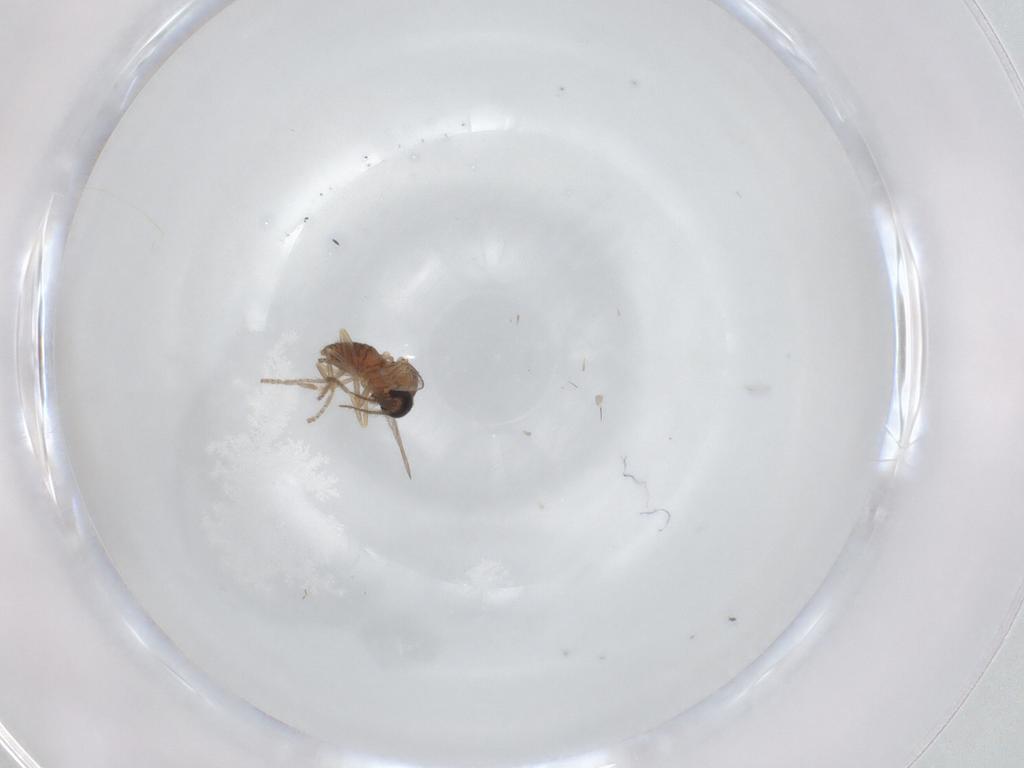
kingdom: Animalia
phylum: Arthropoda
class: Insecta
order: Diptera
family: Ceratopogonidae
